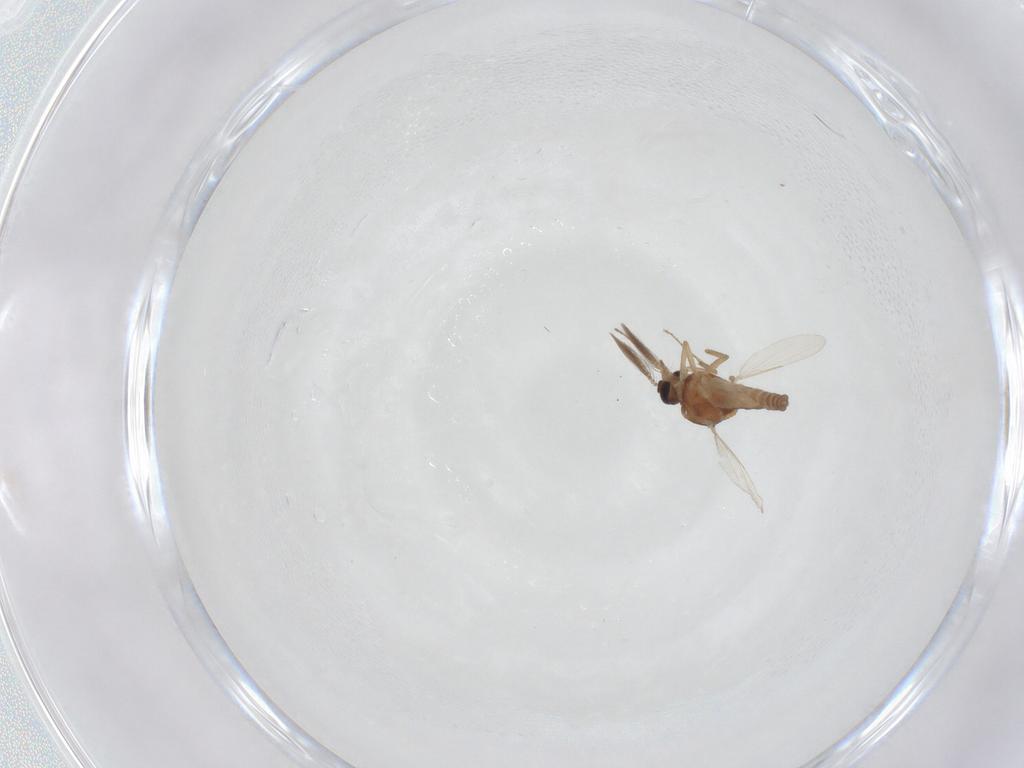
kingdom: Animalia
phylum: Arthropoda
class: Insecta
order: Diptera
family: Ceratopogonidae
